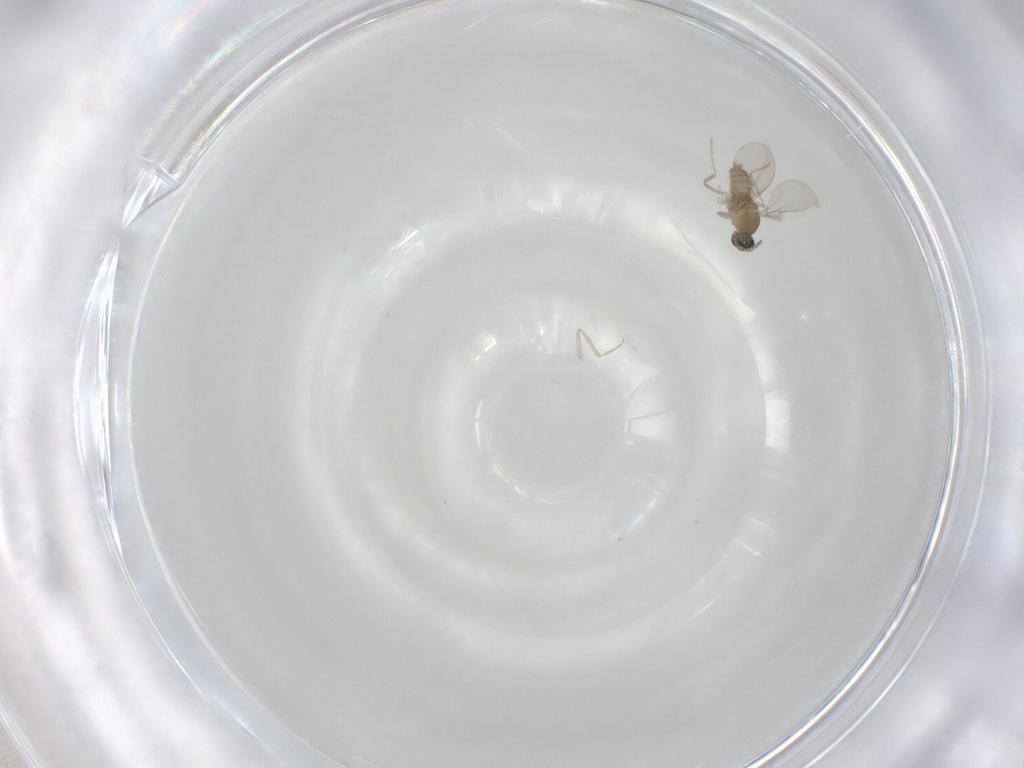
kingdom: Animalia
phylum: Arthropoda
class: Insecta
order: Diptera
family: Cecidomyiidae
